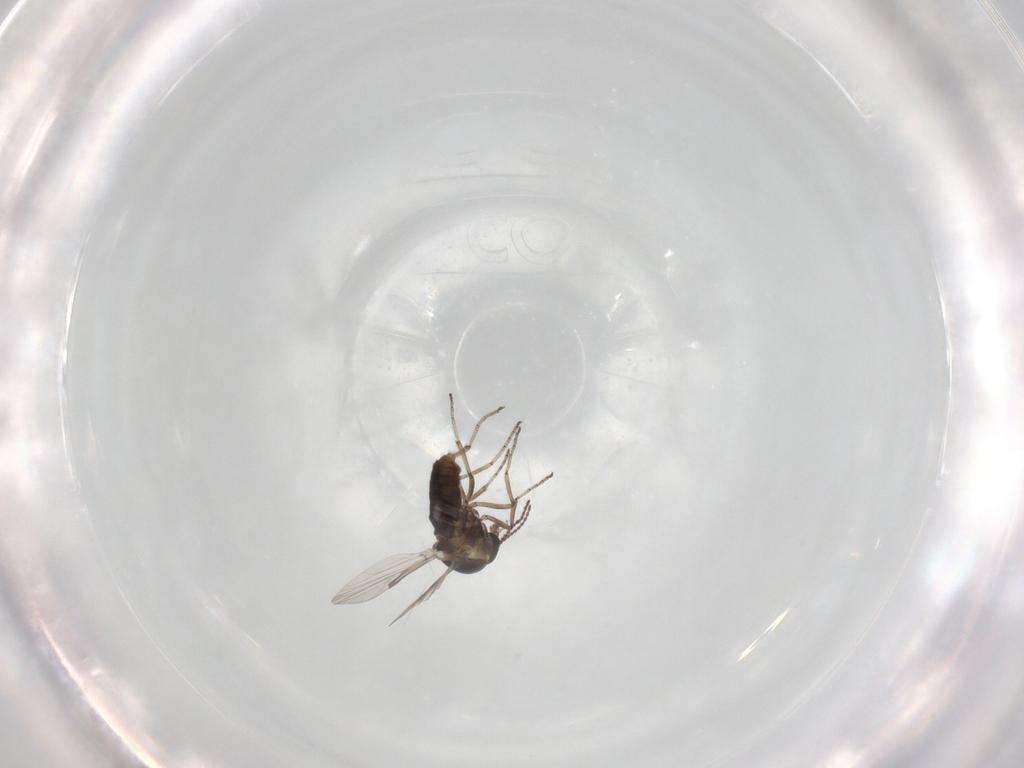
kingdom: Animalia
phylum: Arthropoda
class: Insecta
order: Diptera
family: Ceratopogonidae
